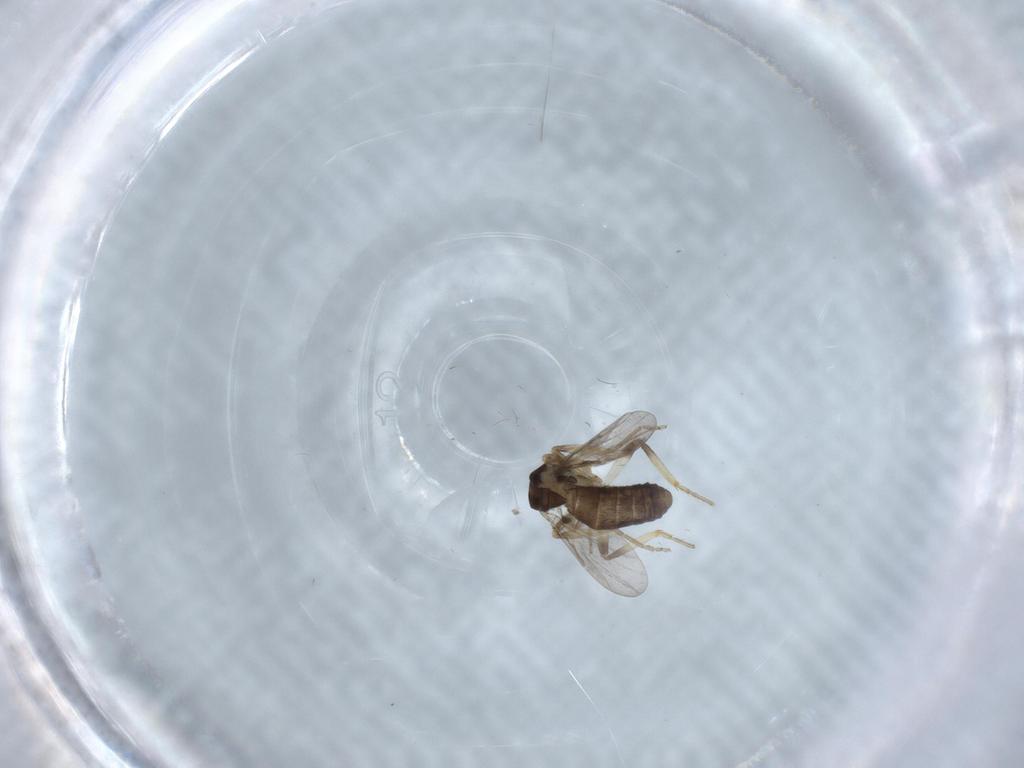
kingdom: Animalia
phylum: Arthropoda
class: Insecta
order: Diptera
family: Ceratopogonidae
